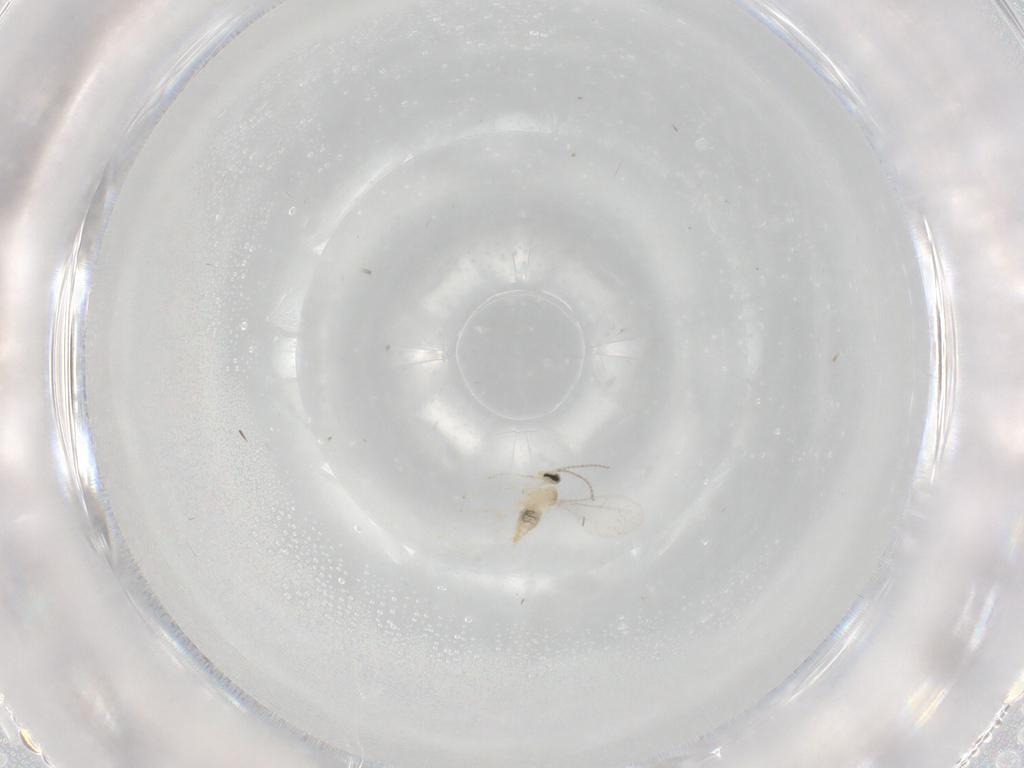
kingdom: Animalia
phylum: Arthropoda
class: Insecta
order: Diptera
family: Cecidomyiidae
